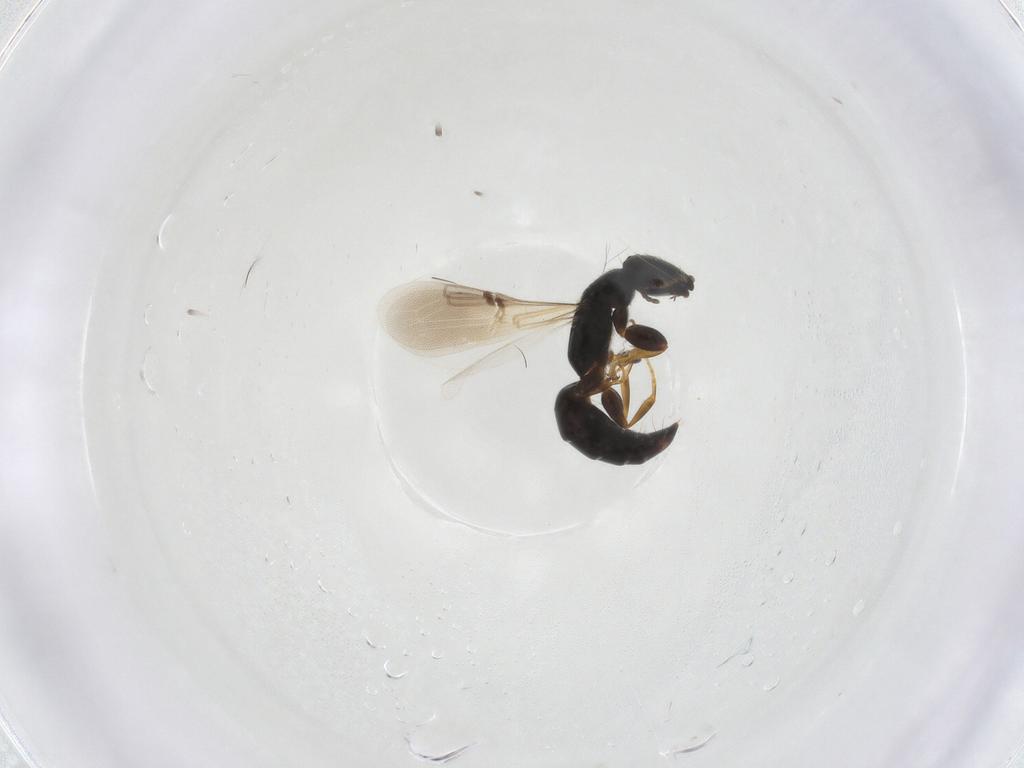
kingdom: Animalia
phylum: Arthropoda
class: Insecta
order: Hymenoptera
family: Bethylidae
